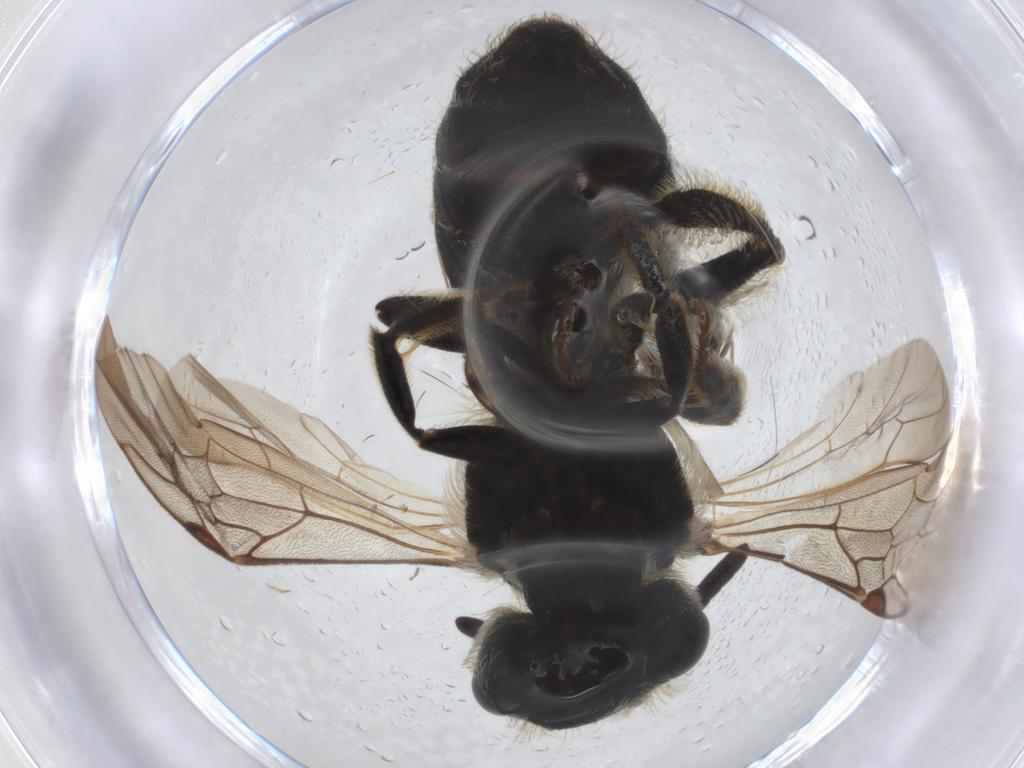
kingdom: Animalia
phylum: Arthropoda
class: Insecta
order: Hymenoptera
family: Andrenidae
